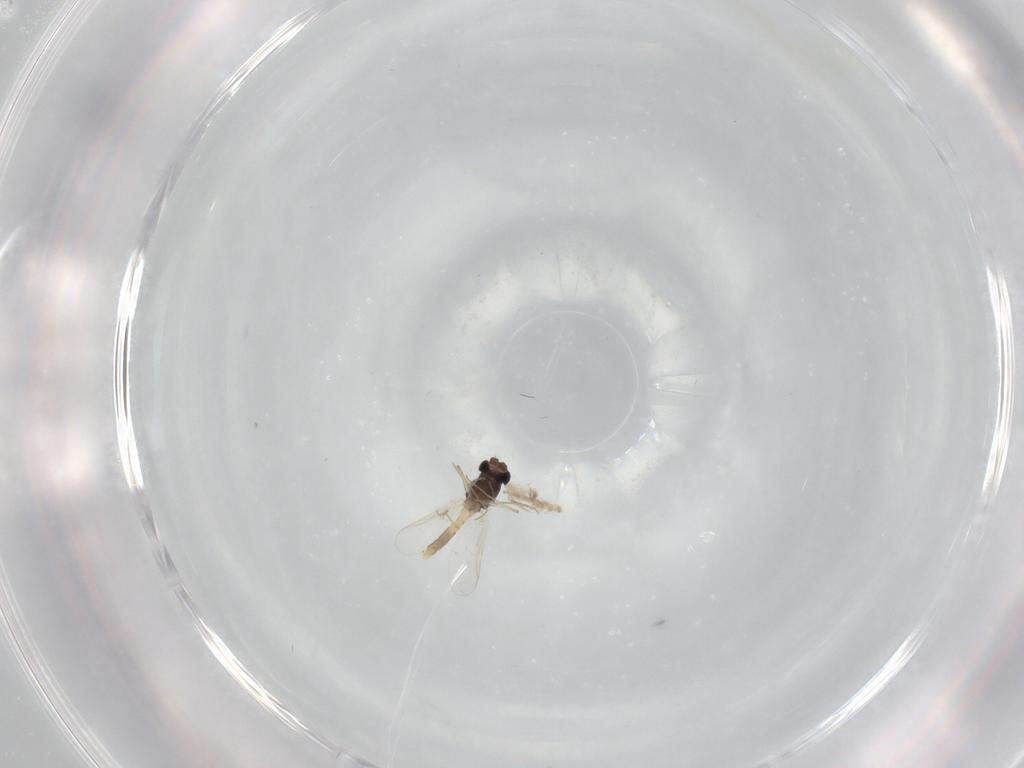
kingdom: Animalia
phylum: Arthropoda
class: Insecta
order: Diptera
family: Chironomidae
